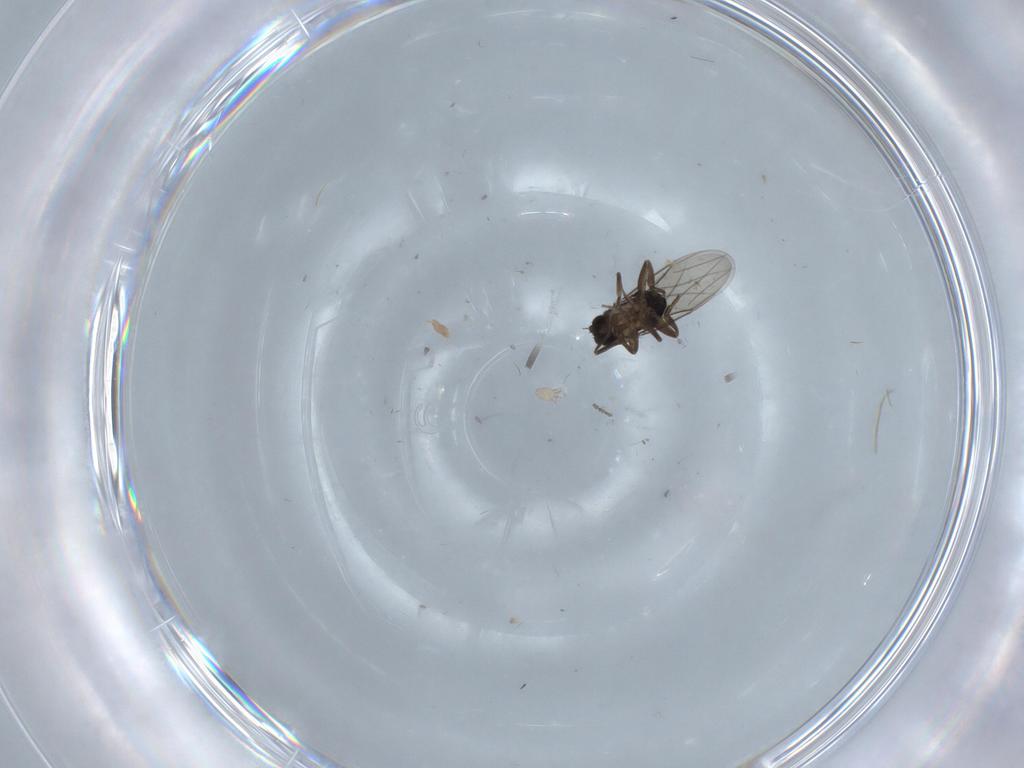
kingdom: Animalia
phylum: Arthropoda
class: Insecta
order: Diptera
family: Phoridae
